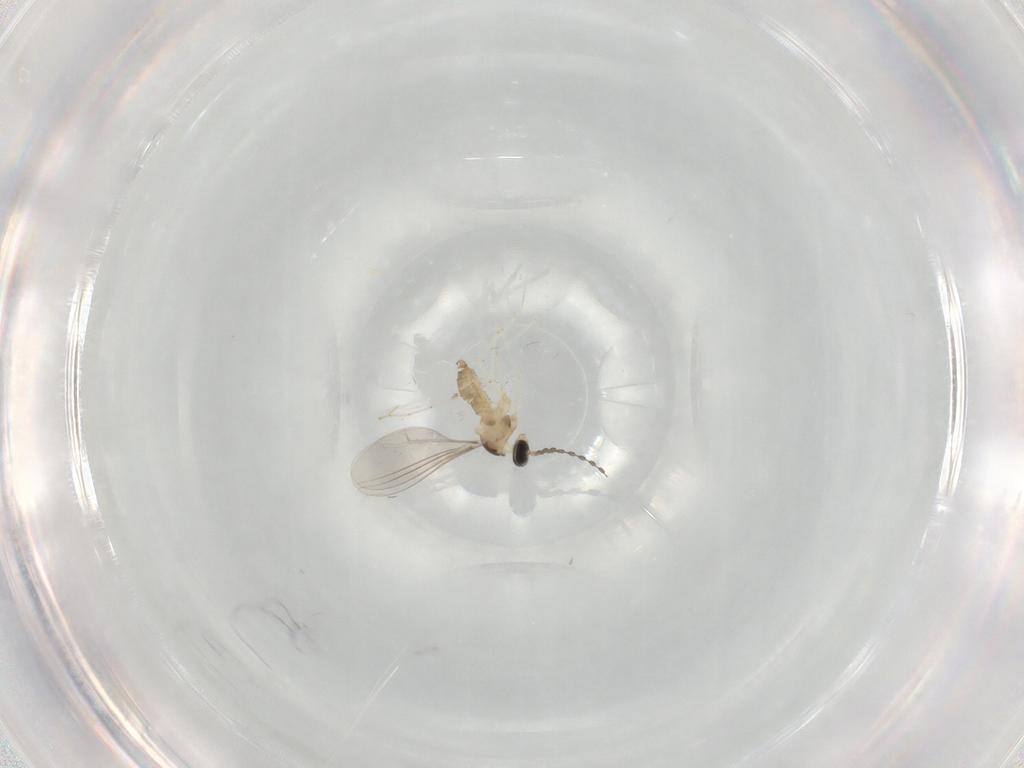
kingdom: Animalia
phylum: Arthropoda
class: Insecta
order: Diptera
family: Cecidomyiidae
